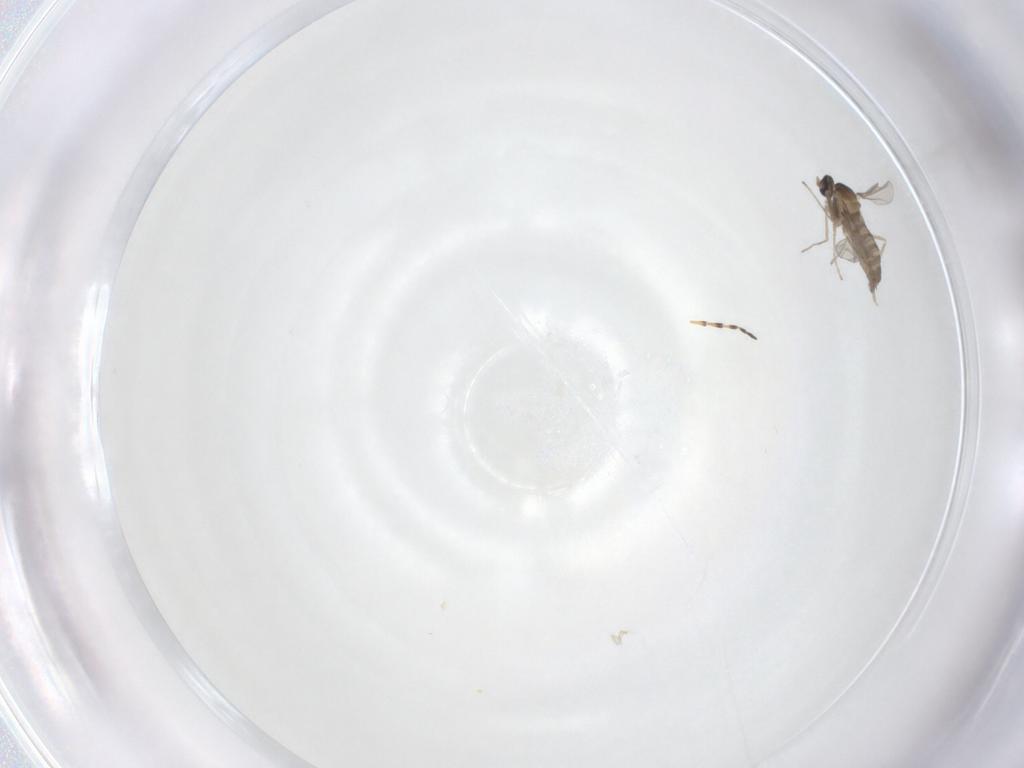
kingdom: Animalia
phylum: Arthropoda
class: Insecta
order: Diptera
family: Cecidomyiidae
